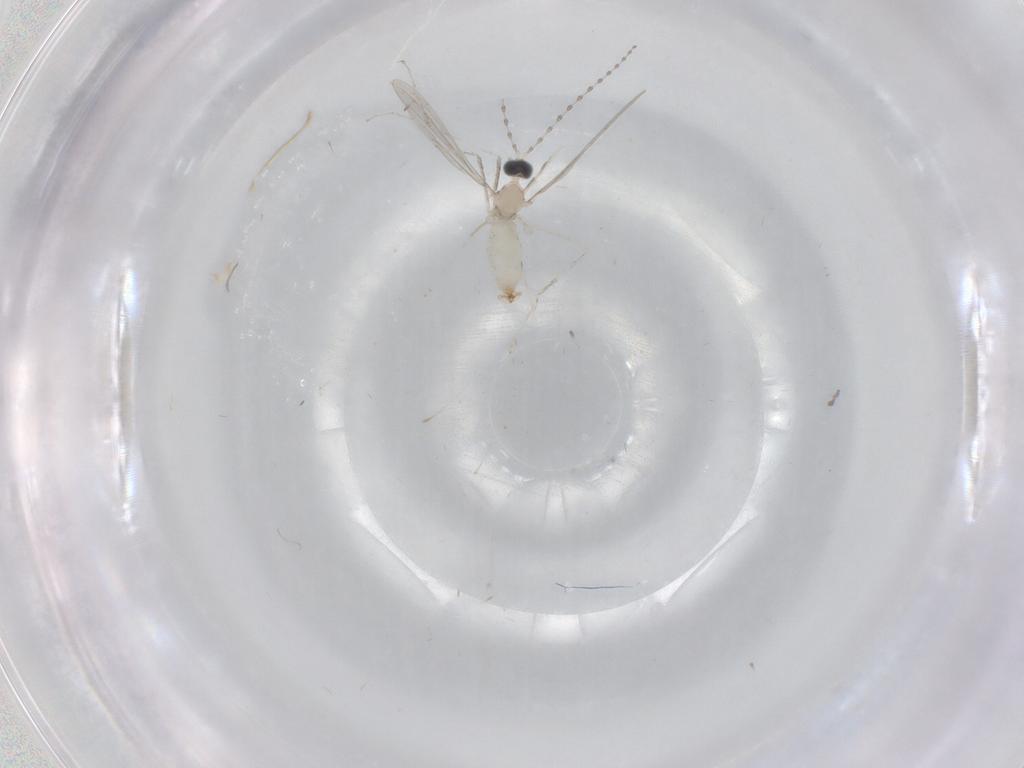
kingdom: Animalia
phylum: Arthropoda
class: Insecta
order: Diptera
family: Cecidomyiidae
